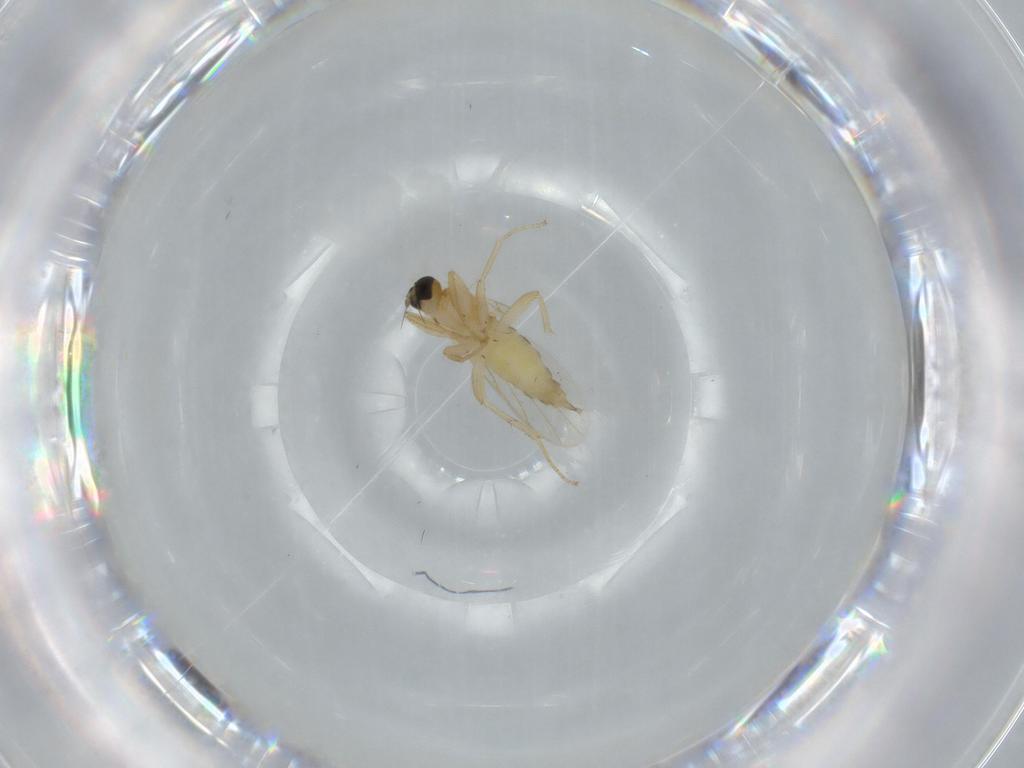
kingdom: Animalia
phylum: Arthropoda
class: Insecta
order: Diptera
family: Hybotidae
